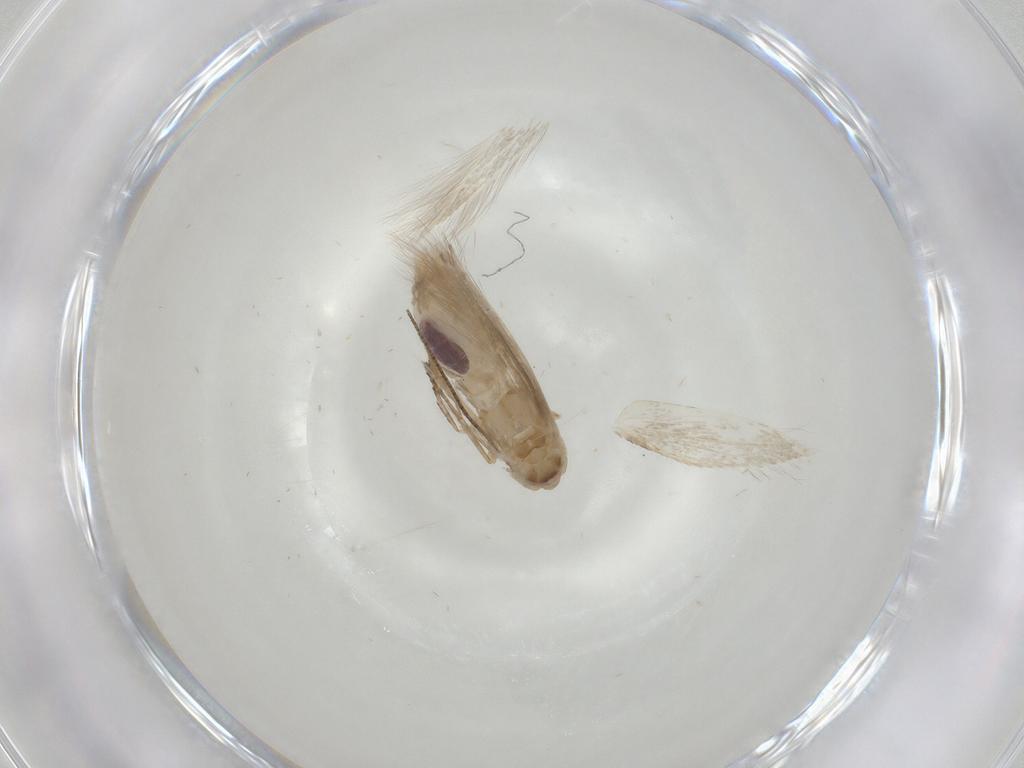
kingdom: Animalia
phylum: Arthropoda
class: Insecta
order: Lepidoptera
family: Bucculatricidae
